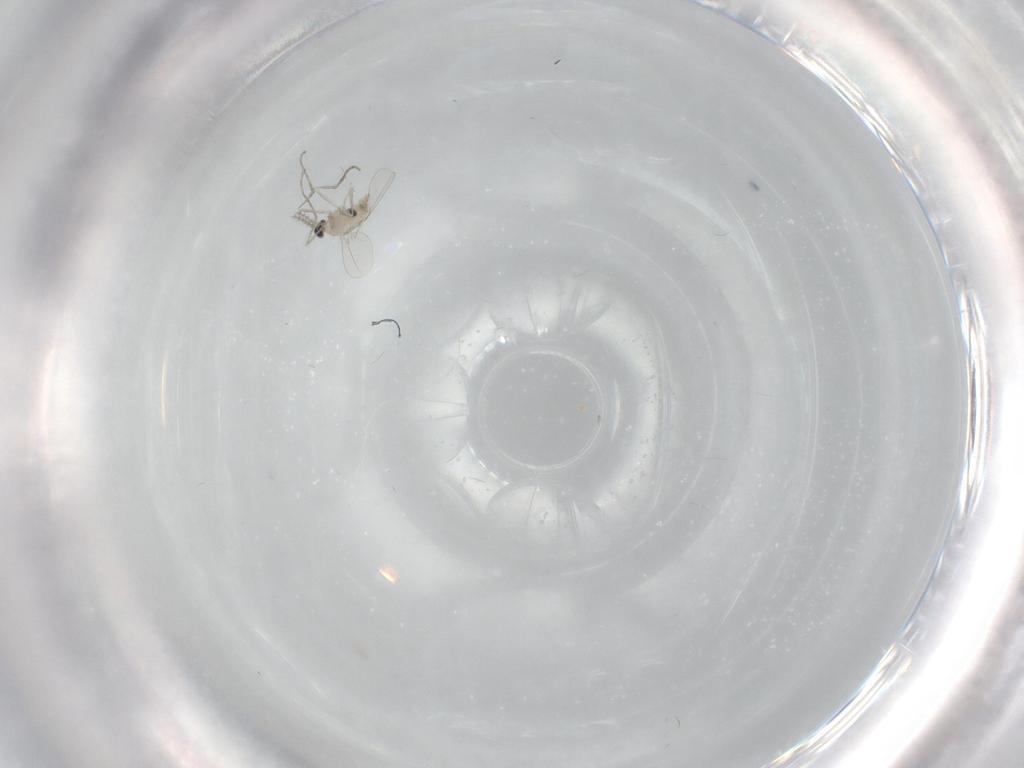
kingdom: Animalia
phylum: Arthropoda
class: Insecta
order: Diptera
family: Cecidomyiidae
